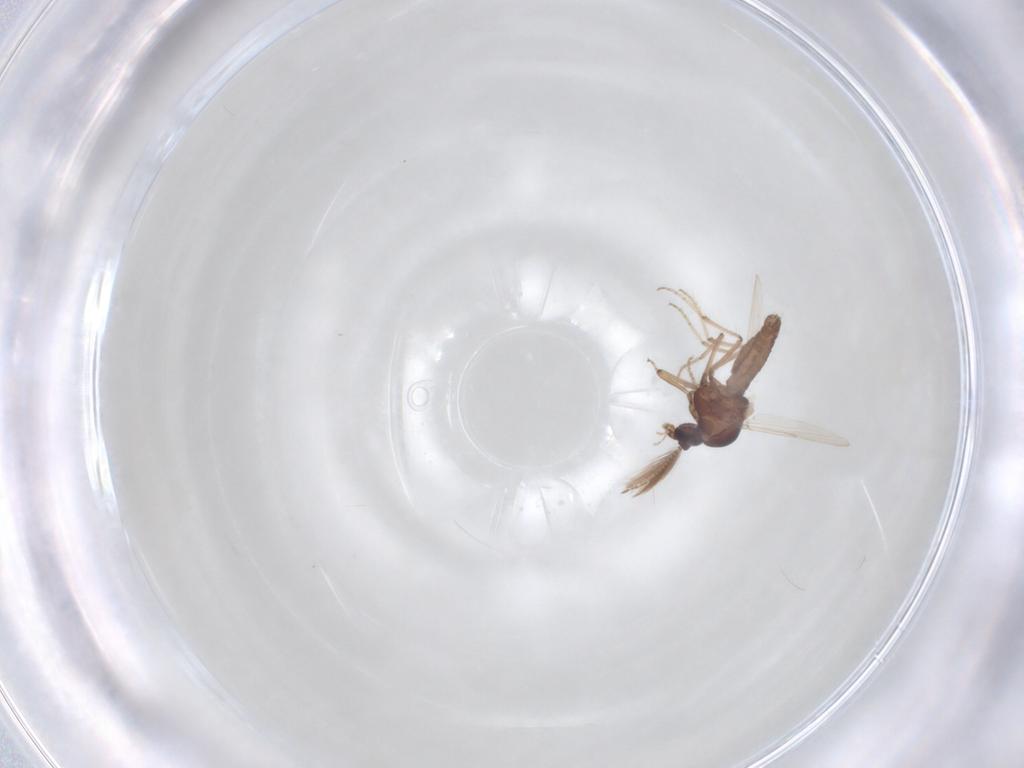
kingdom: Animalia
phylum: Arthropoda
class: Insecta
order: Diptera
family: Ceratopogonidae
